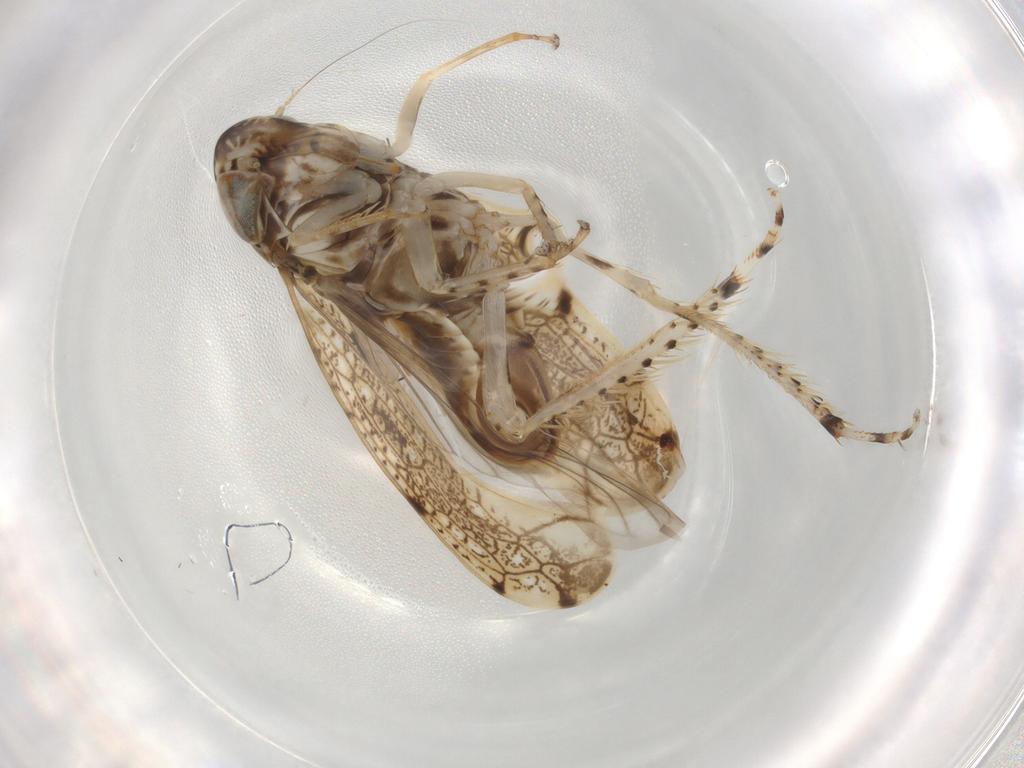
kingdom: Animalia
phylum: Arthropoda
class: Insecta
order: Hemiptera
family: Cicadellidae
